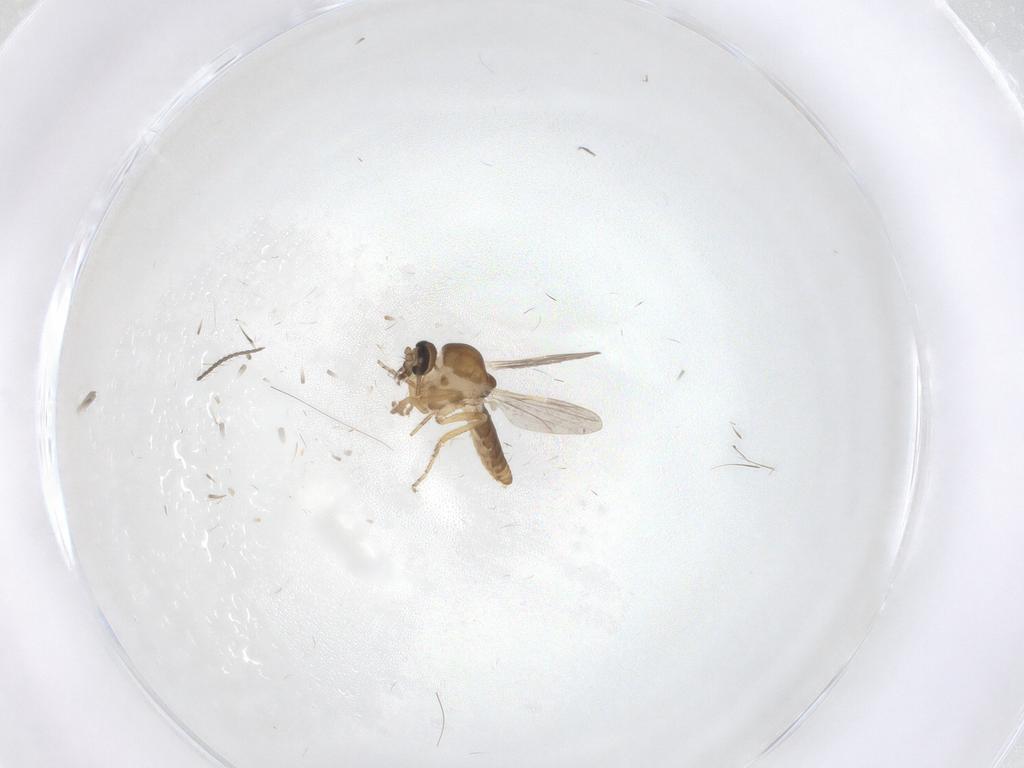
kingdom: Animalia
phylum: Arthropoda
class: Insecta
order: Diptera
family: Ceratopogonidae
